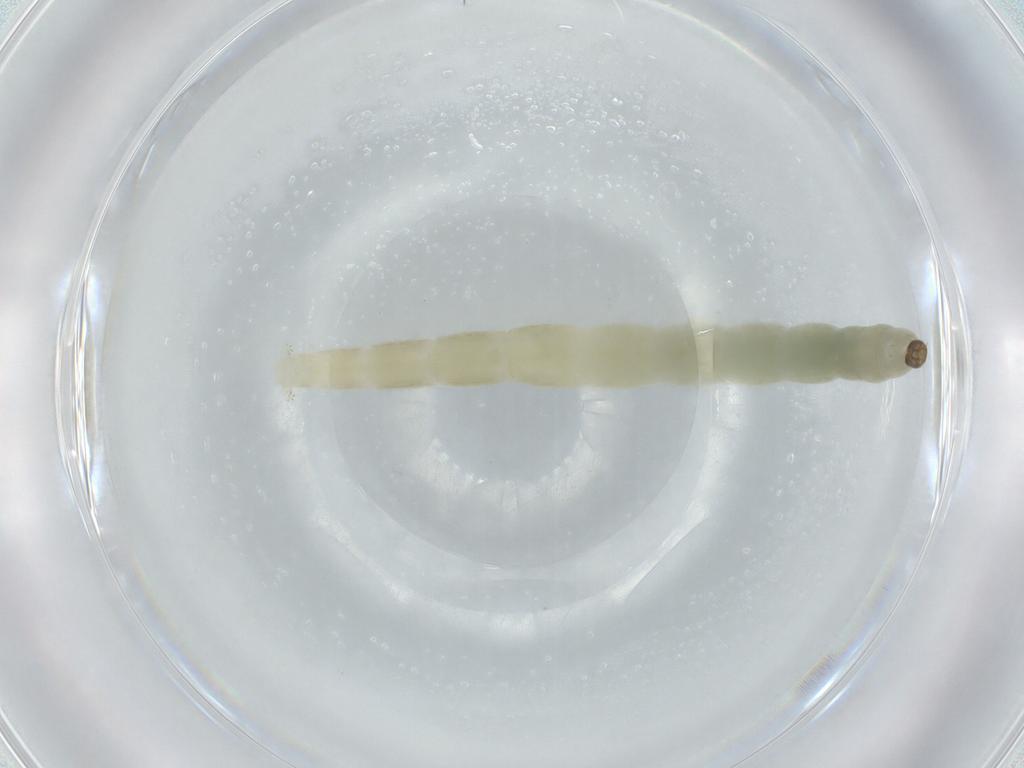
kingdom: Animalia
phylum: Arthropoda
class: Insecta
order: Diptera
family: Chironomidae
